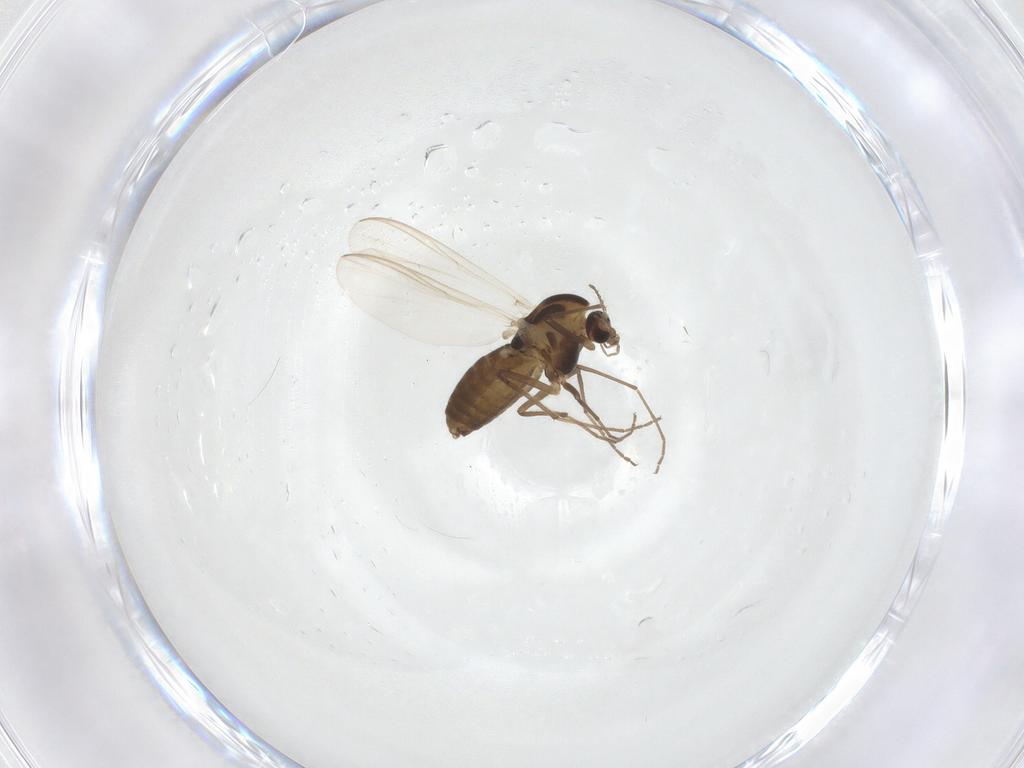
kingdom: Animalia
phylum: Arthropoda
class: Insecta
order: Diptera
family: Chironomidae
